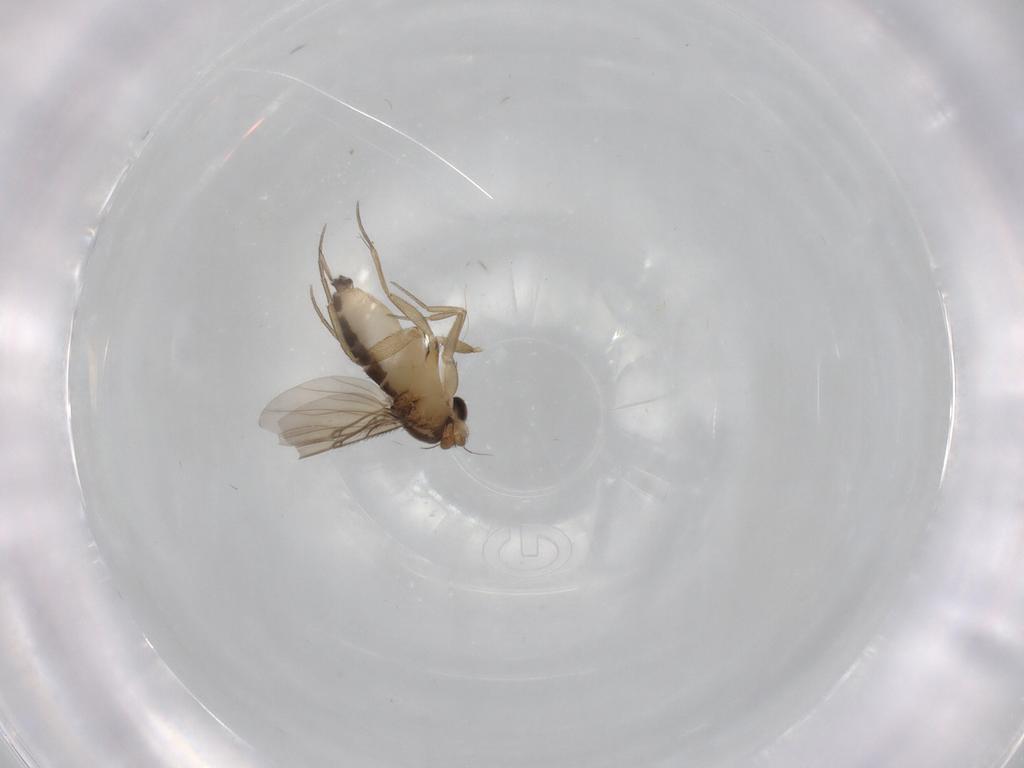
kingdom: Animalia
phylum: Arthropoda
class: Insecta
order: Diptera
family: Phoridae
